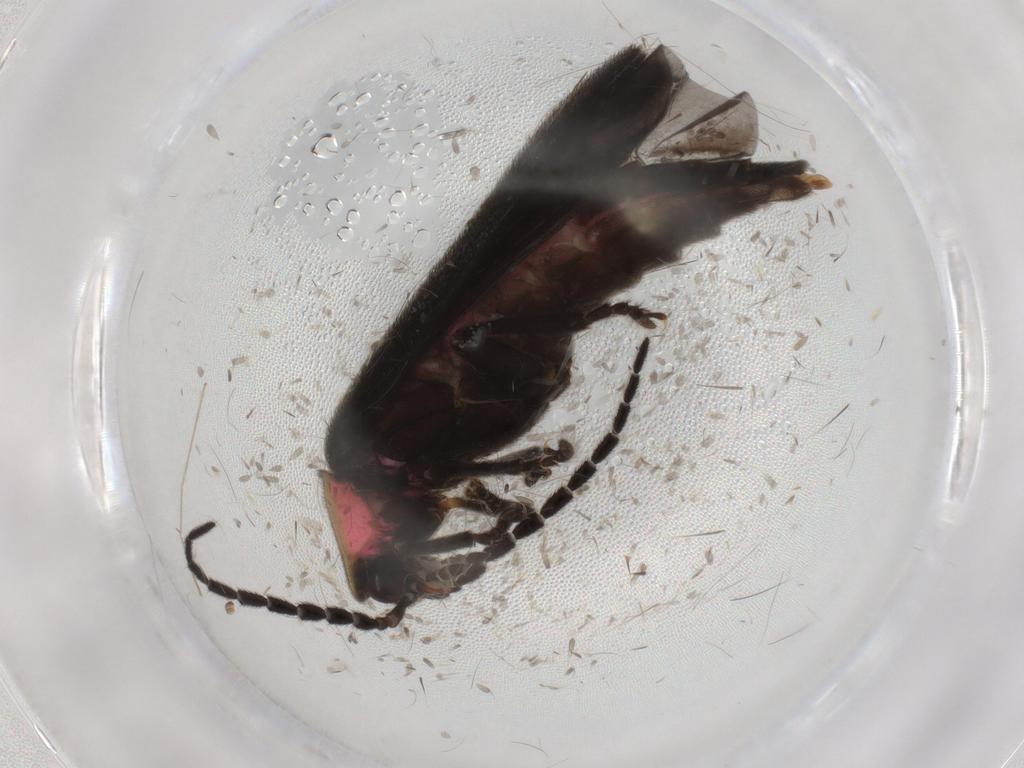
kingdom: Animalia
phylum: Arthropoda
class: Insecta
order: Coleoptera
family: Lampyridae
